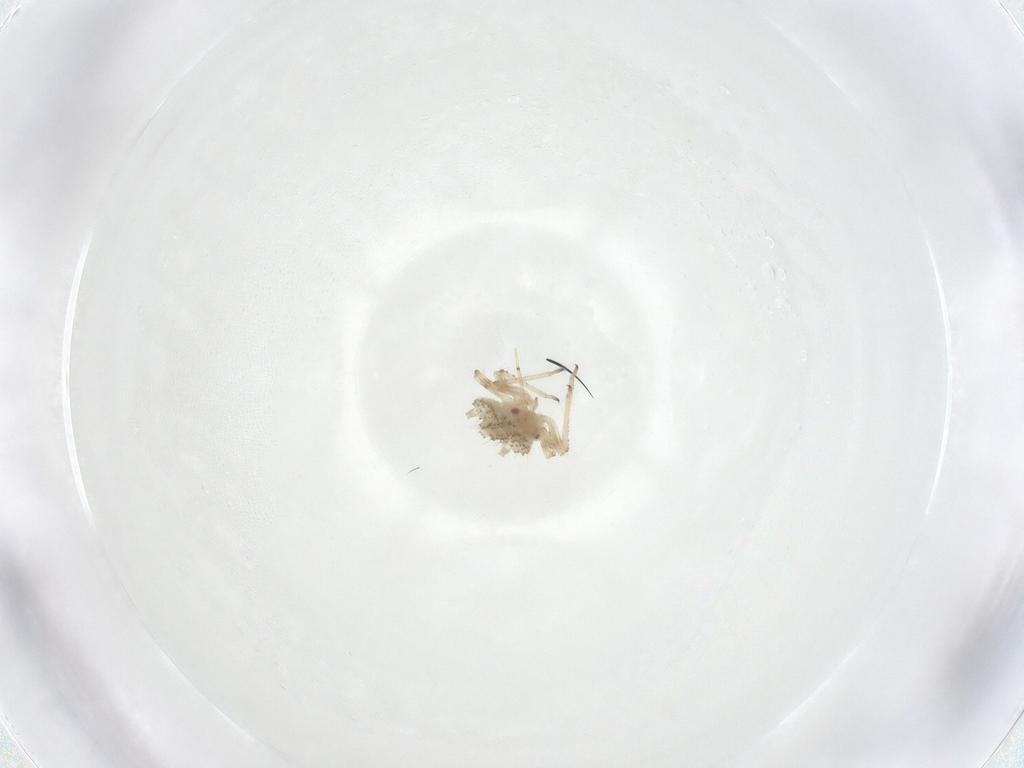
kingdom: Animalia
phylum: Arthropoda
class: Insecta
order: Hemiptera
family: Aphididae
